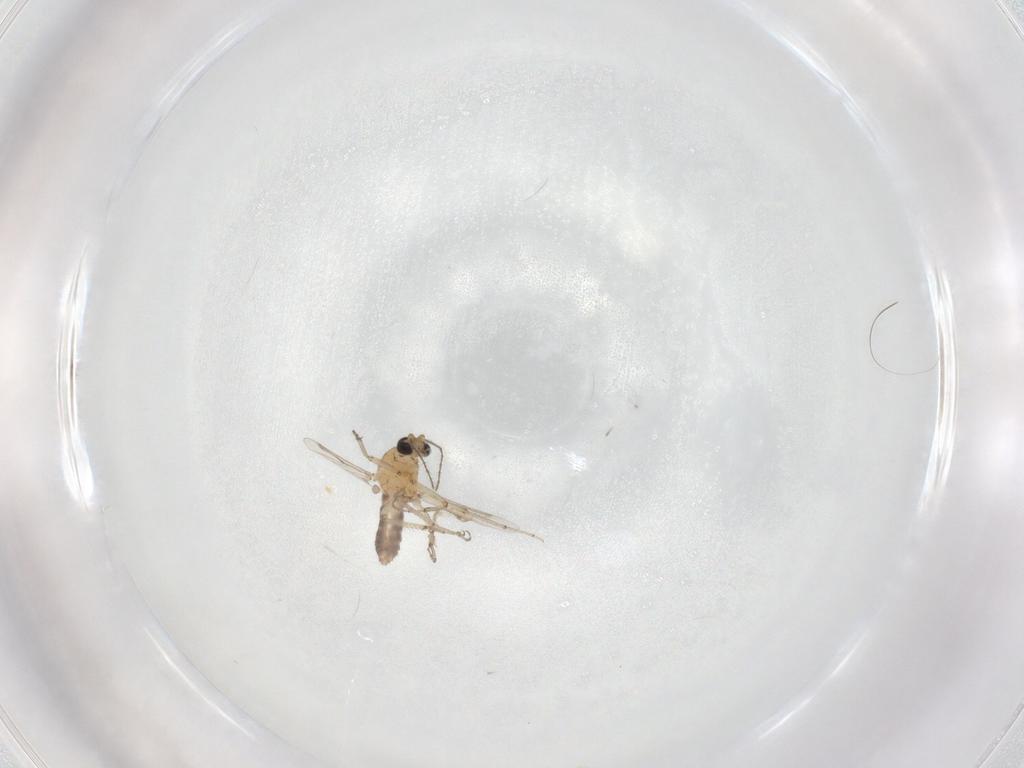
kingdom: Animalia
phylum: Arthropoda
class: Insecta
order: Diptera
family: Ceratopogonidae
